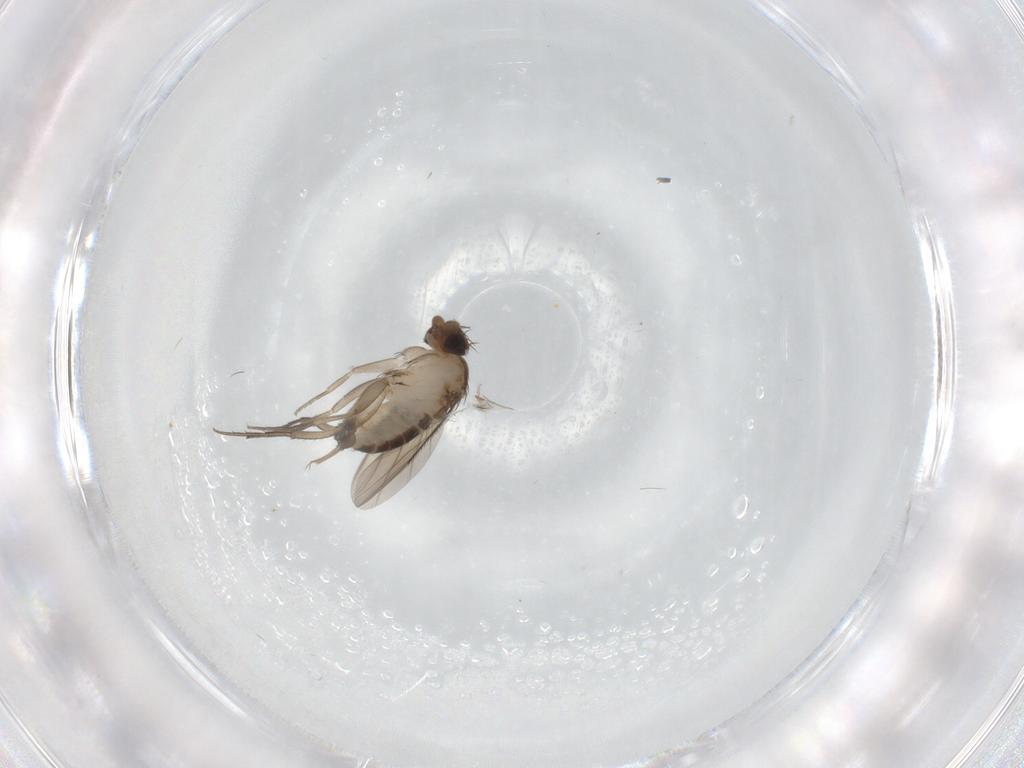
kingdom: Animalia
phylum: Arthropoda
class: Insecta
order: Diptera
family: Phoridae
